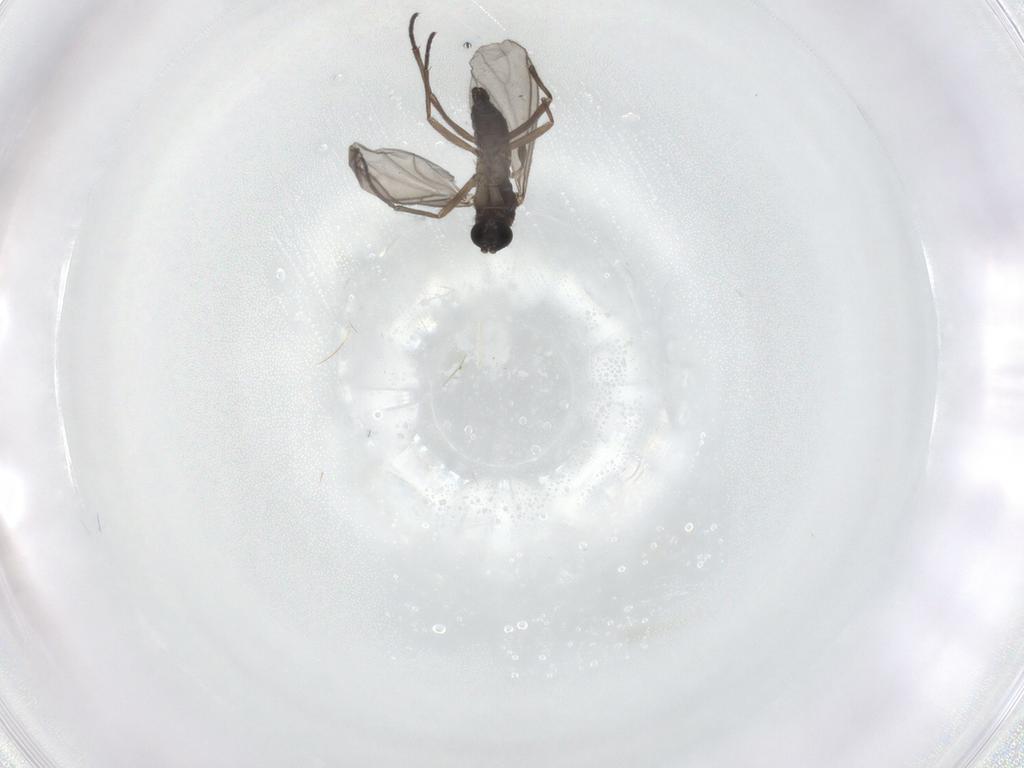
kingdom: Animalia
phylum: Arthropoda
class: Insecta
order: Diptera
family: Sciaridae
